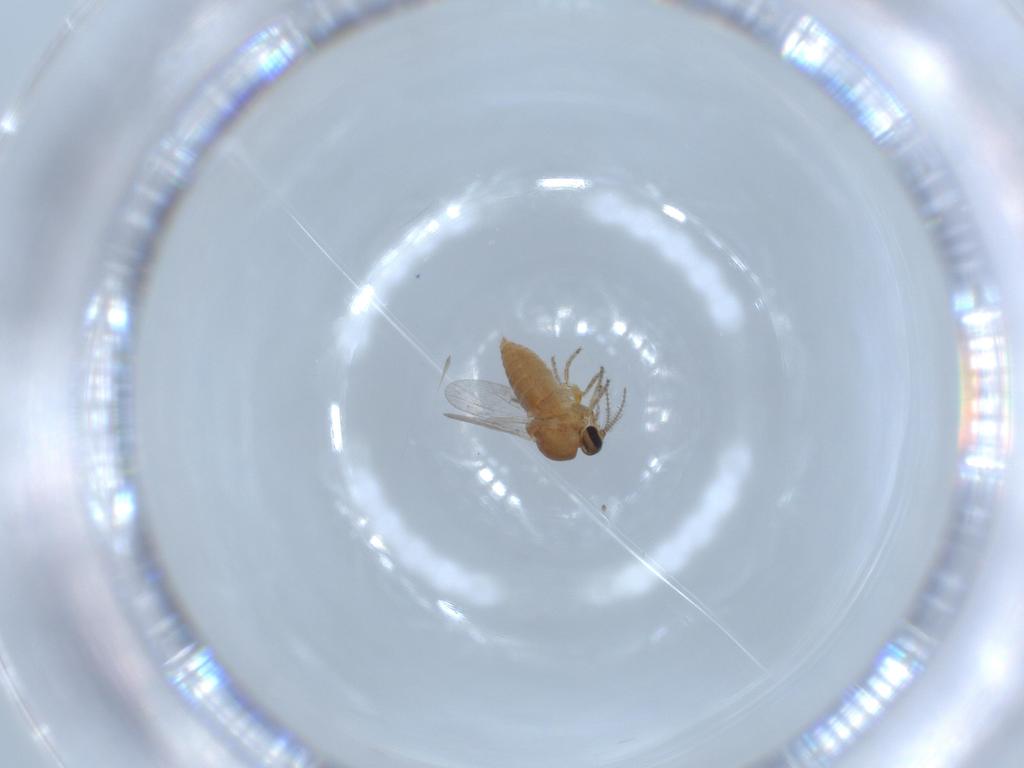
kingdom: Animalia
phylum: Arthropoda
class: Insecta
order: Diptera
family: Ceratopogonidae
